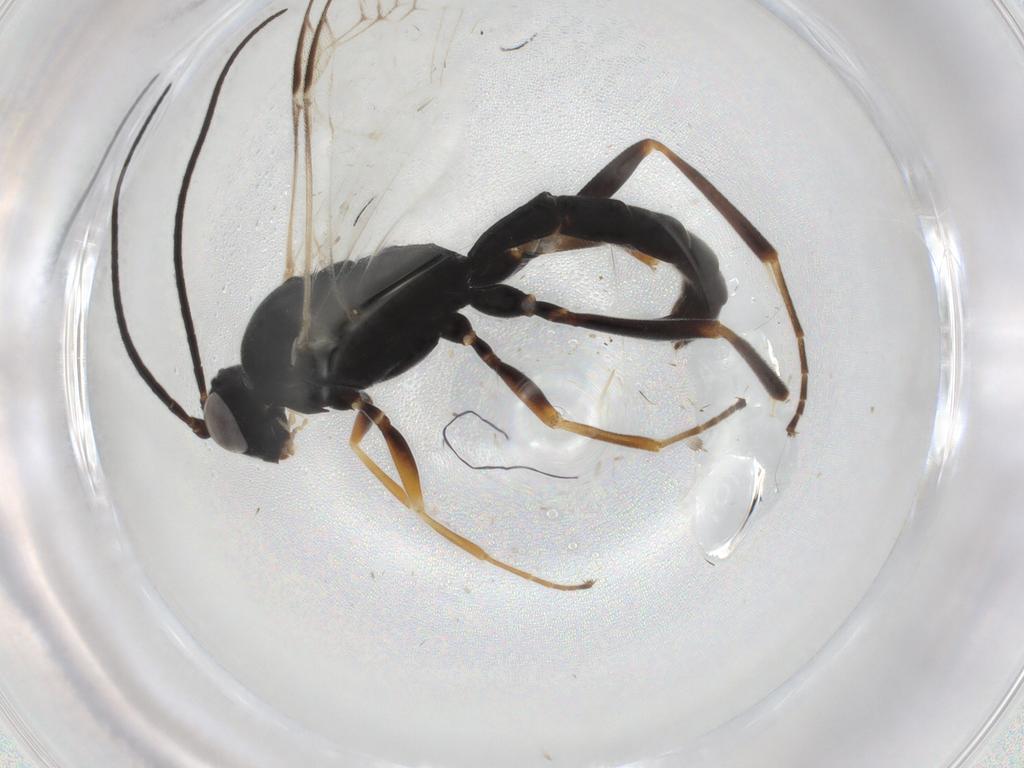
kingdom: Animalia
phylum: Arthropoda
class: Insecta
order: Hymenoptera
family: Ichneumonidae
